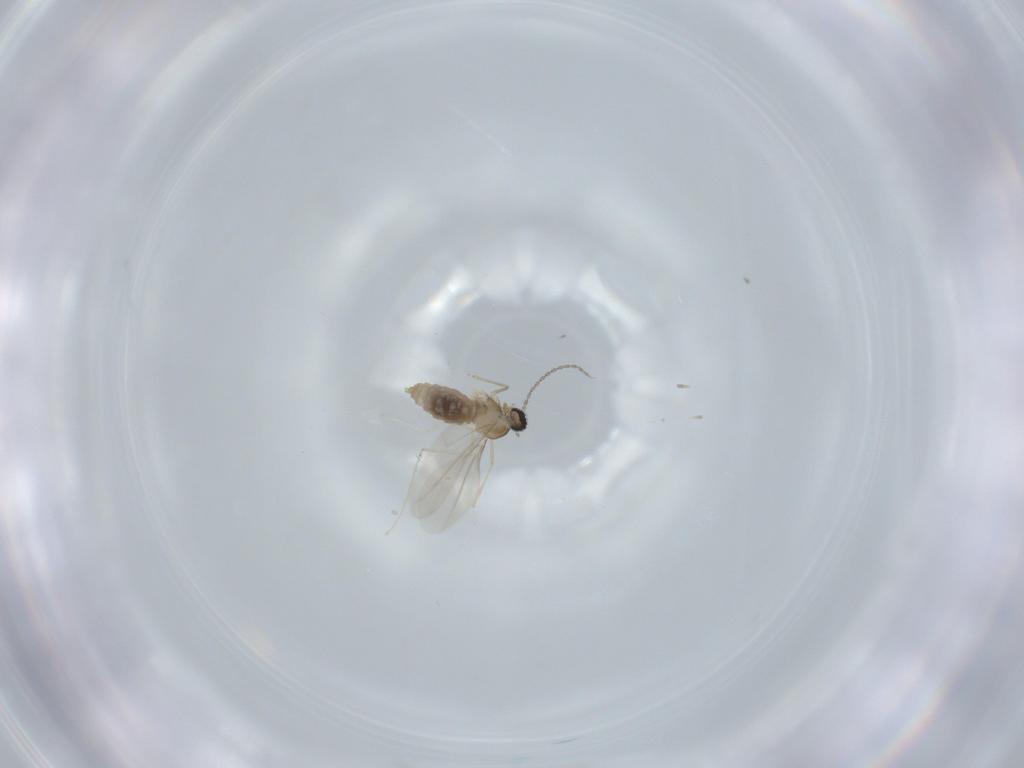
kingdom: Animalia
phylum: Arthropoda
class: Insecta
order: Diptera
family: Cecidomyiidae
